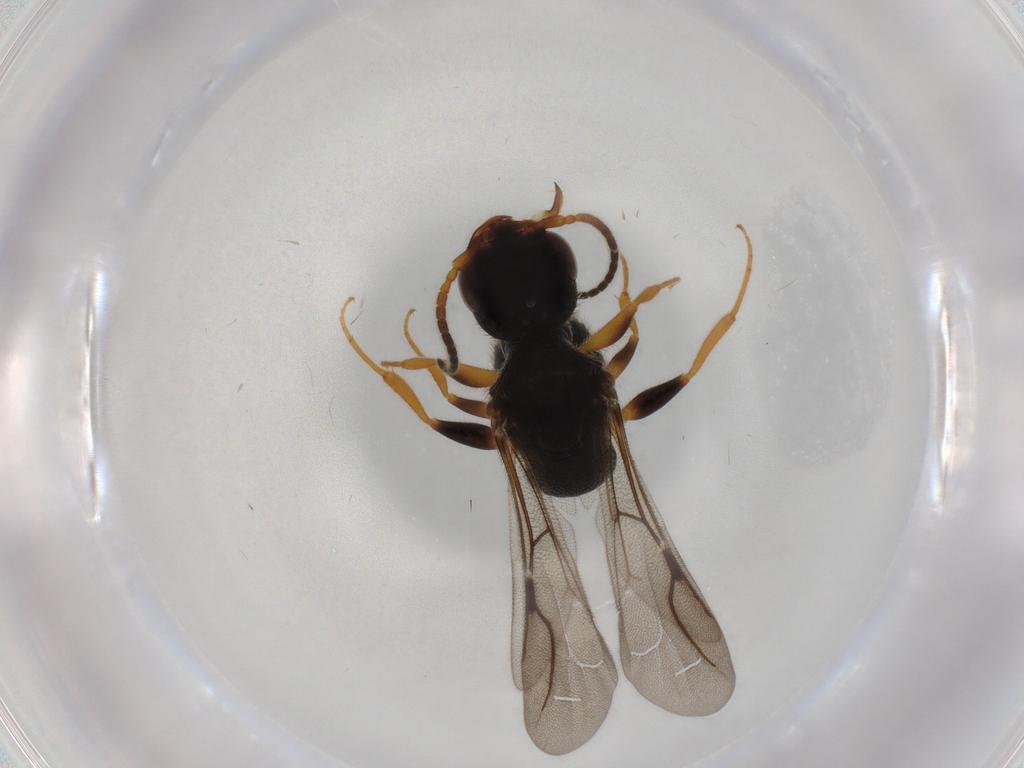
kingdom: Animalia
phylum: Arthropoda
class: Insecta
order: Hymenoptera
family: Bethylidae
